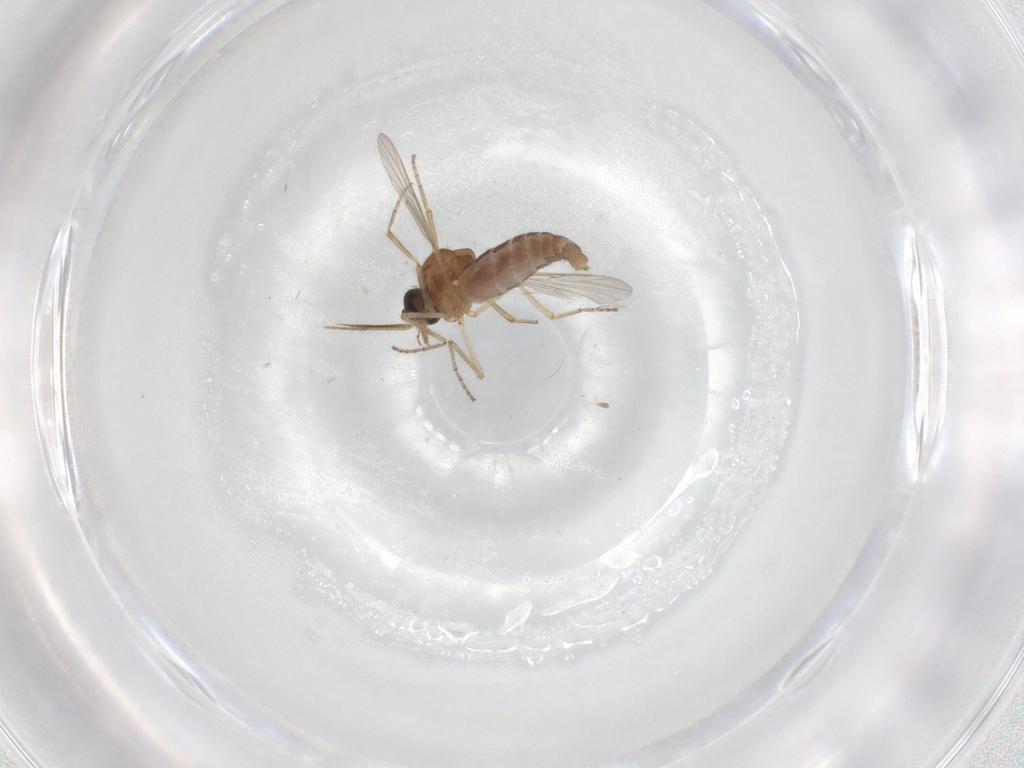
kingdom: Animalia
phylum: Arthropoda
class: Insecta
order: Diptera
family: Ceratopogonidae
